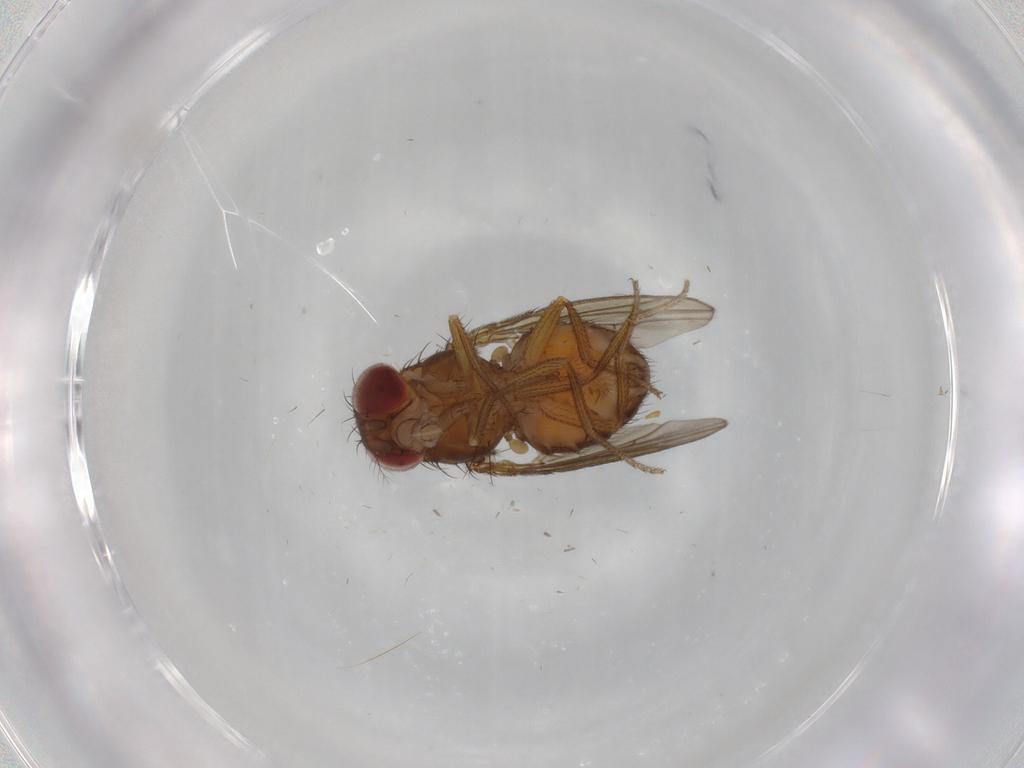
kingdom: Animalia
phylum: Arthropoda
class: Insecta
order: Diptera
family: Drosophilidae
